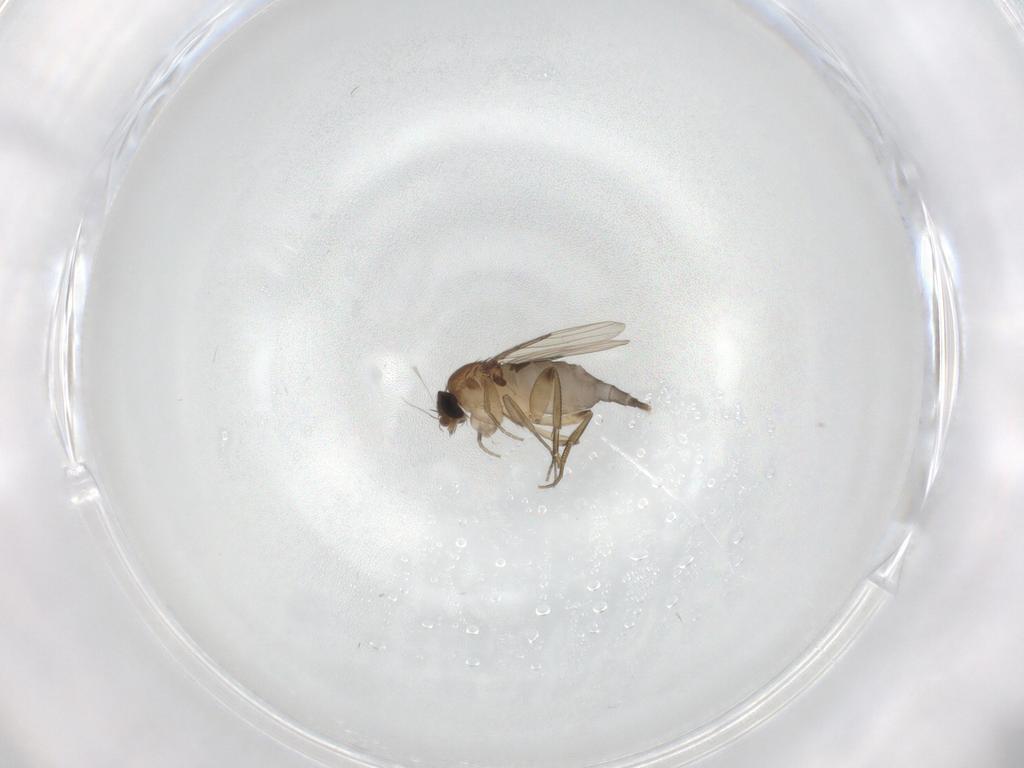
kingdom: Animalia
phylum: Arthropoda
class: Insecta
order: Diptera
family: Phoridae
